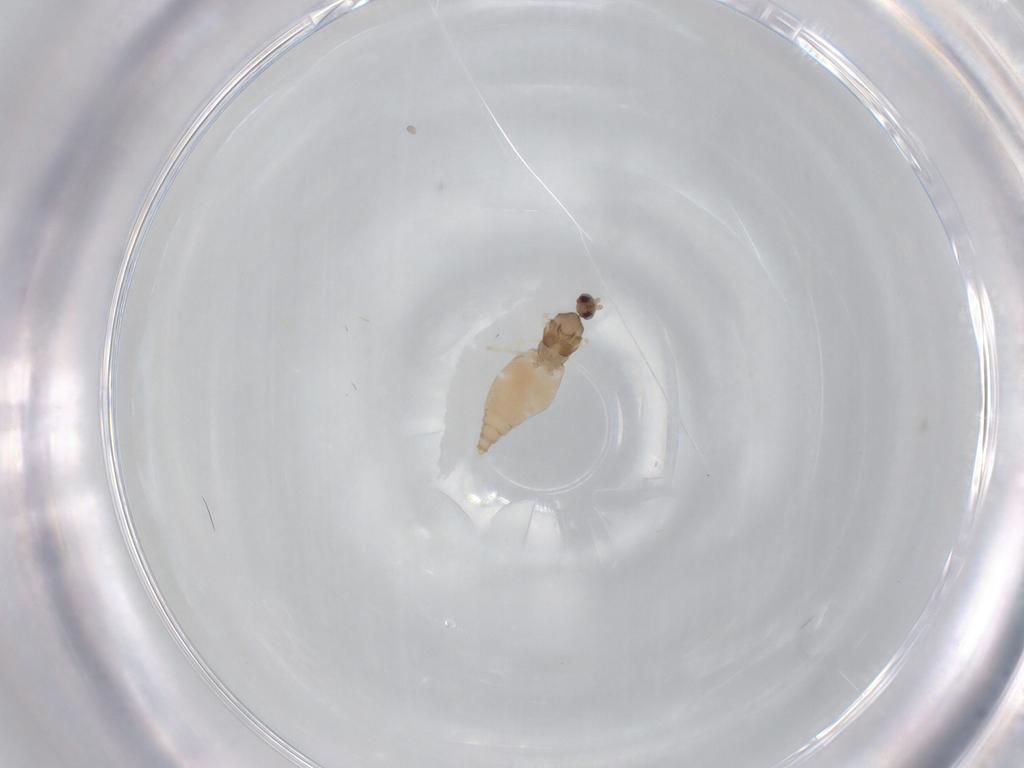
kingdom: Animalia
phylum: Arthropoda
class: Insecta
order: Diptera
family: Cecidomyiidae
